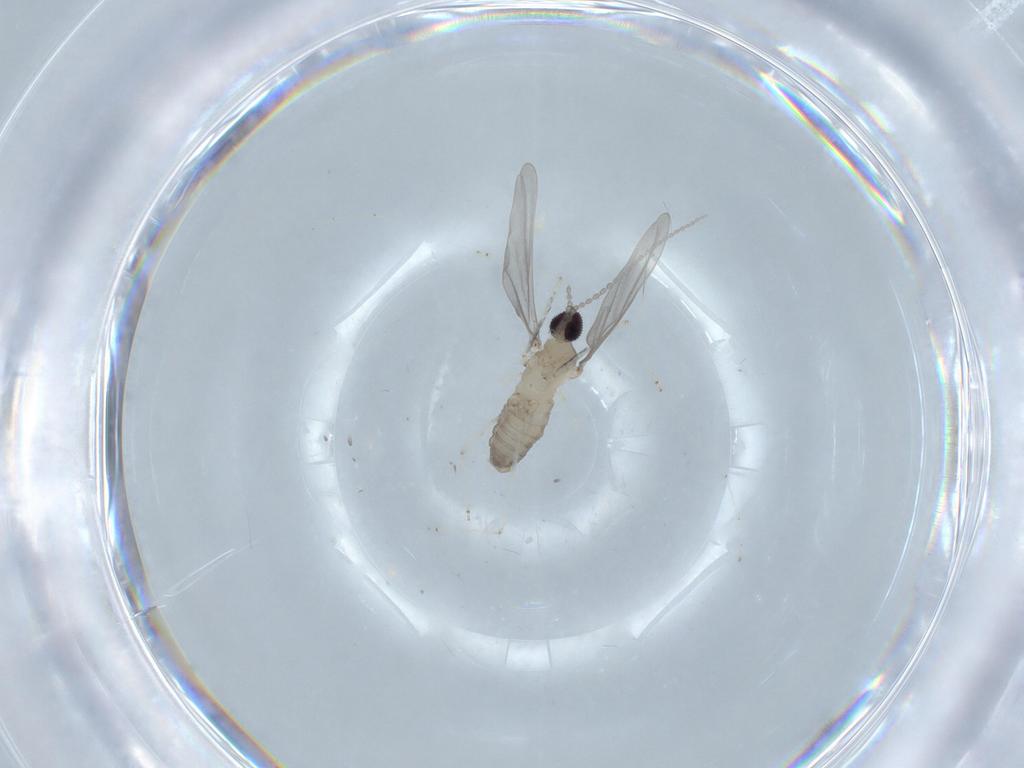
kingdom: Animalia
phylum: Arthropoda
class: Insecta
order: Diptera
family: Cecidomyiidae
